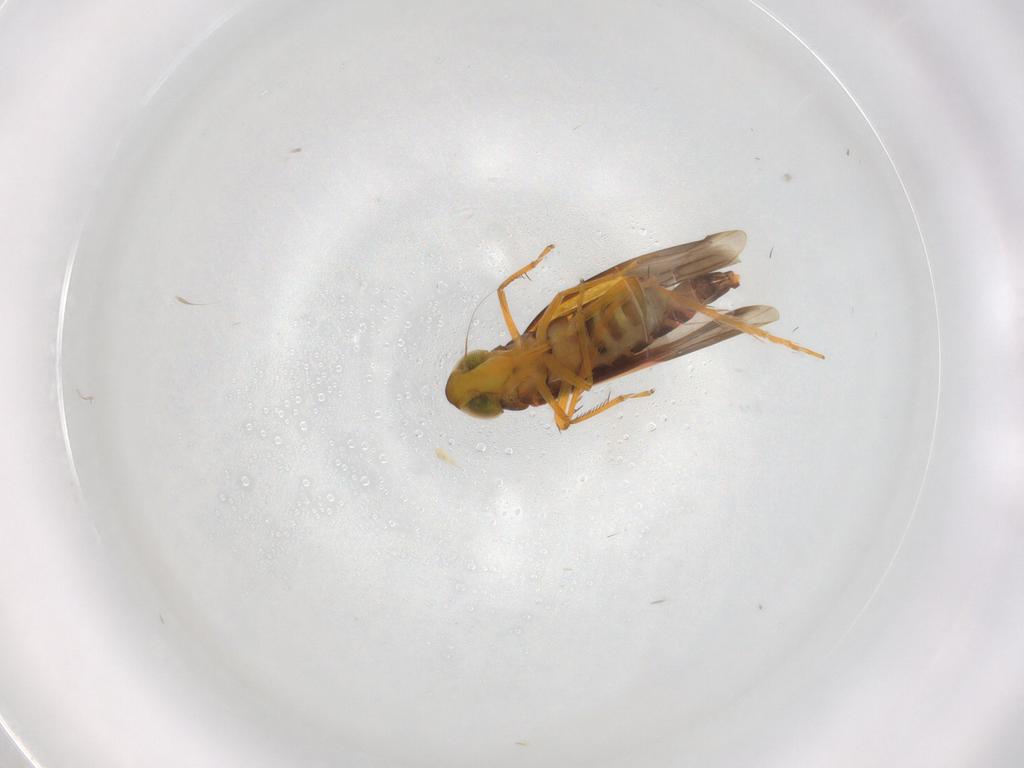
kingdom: Animalia
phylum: Arthropoda
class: Insecta
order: Hemiptera
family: Cicadellidae
